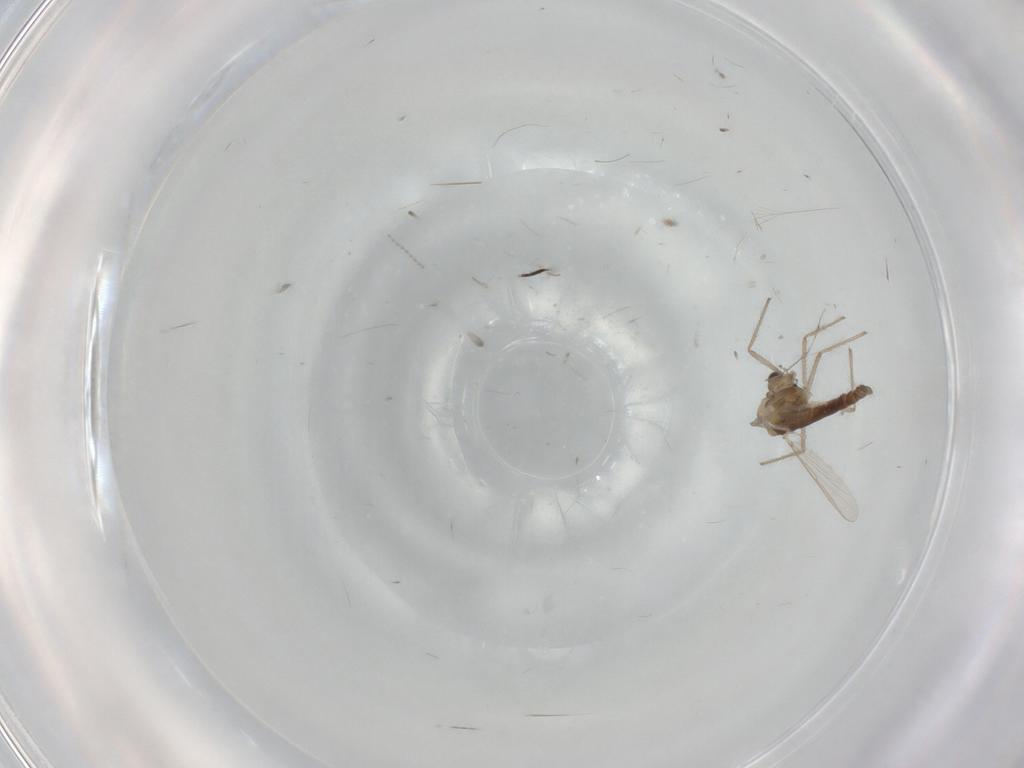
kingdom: Animalia
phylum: Arthropoda
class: Insecta
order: Diptera
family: Chironomidae
